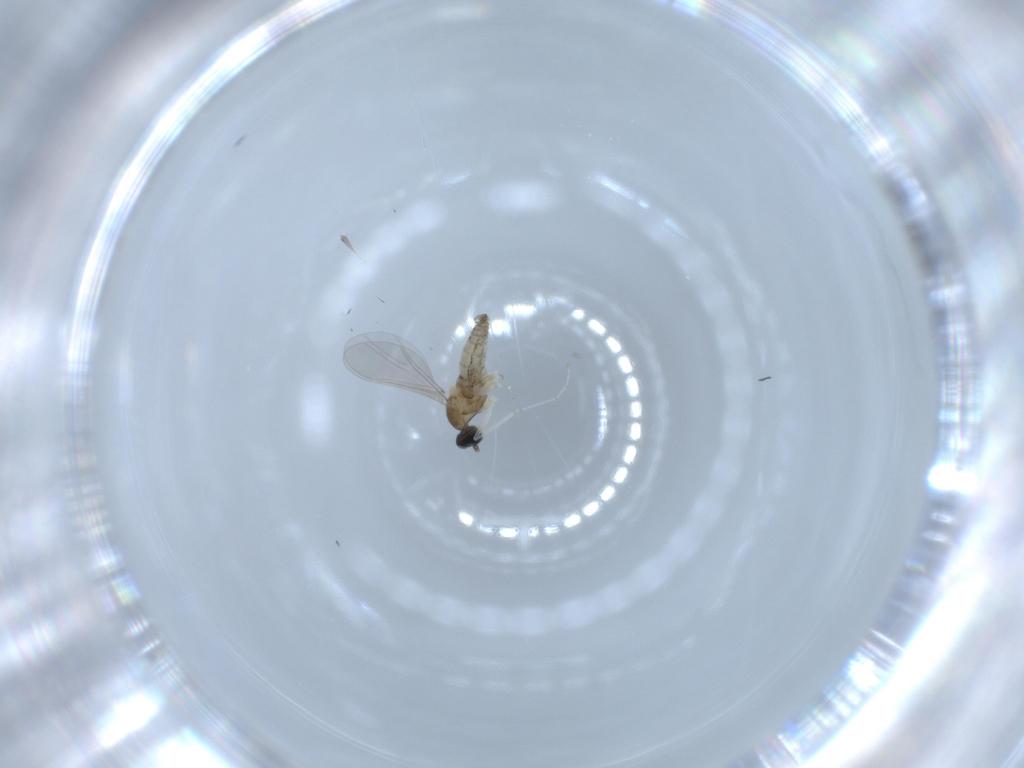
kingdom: Animalia
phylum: Arthropoda
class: Insecta
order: Diptera
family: Cecidomyiidae
